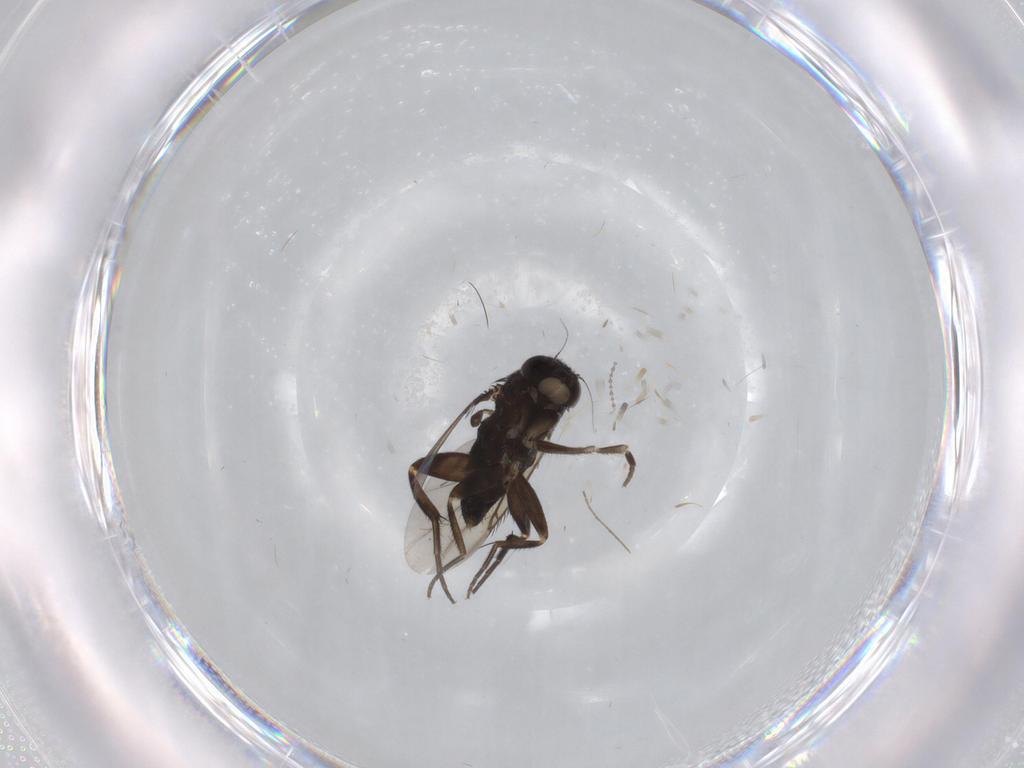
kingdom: Animalia
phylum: Arthropoda
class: Insecta
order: Diptera
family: Phoridae
